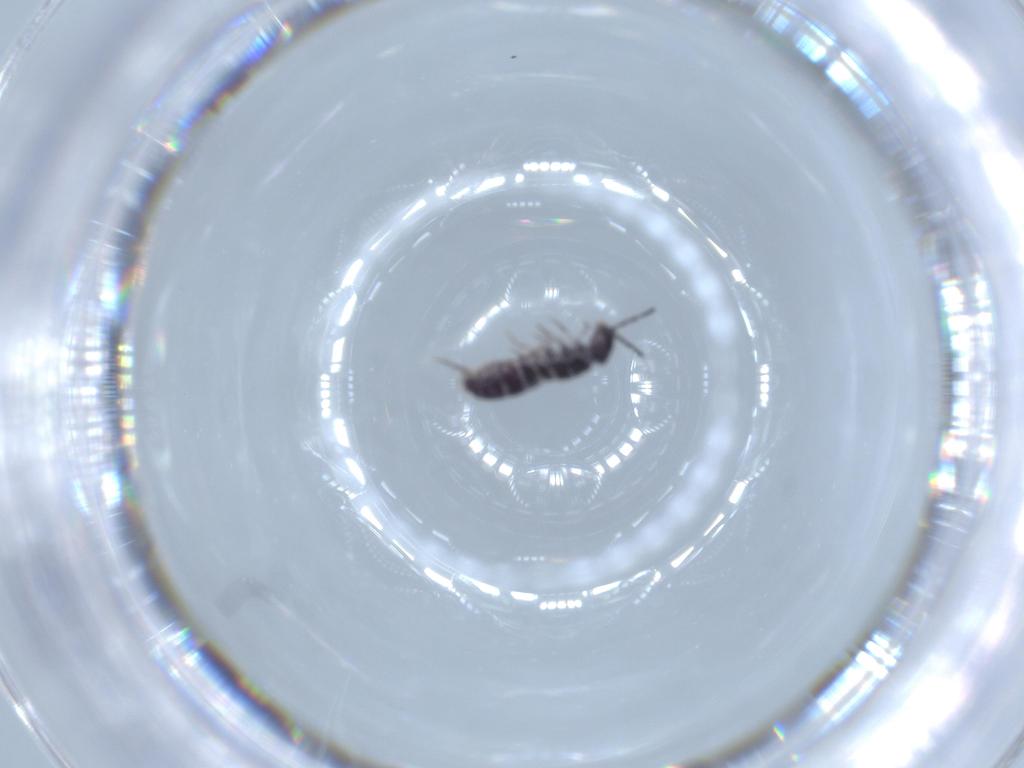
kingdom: Animalia
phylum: Arthropoda
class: Collembola
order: Entomobryomorpha
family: Isotomidae
